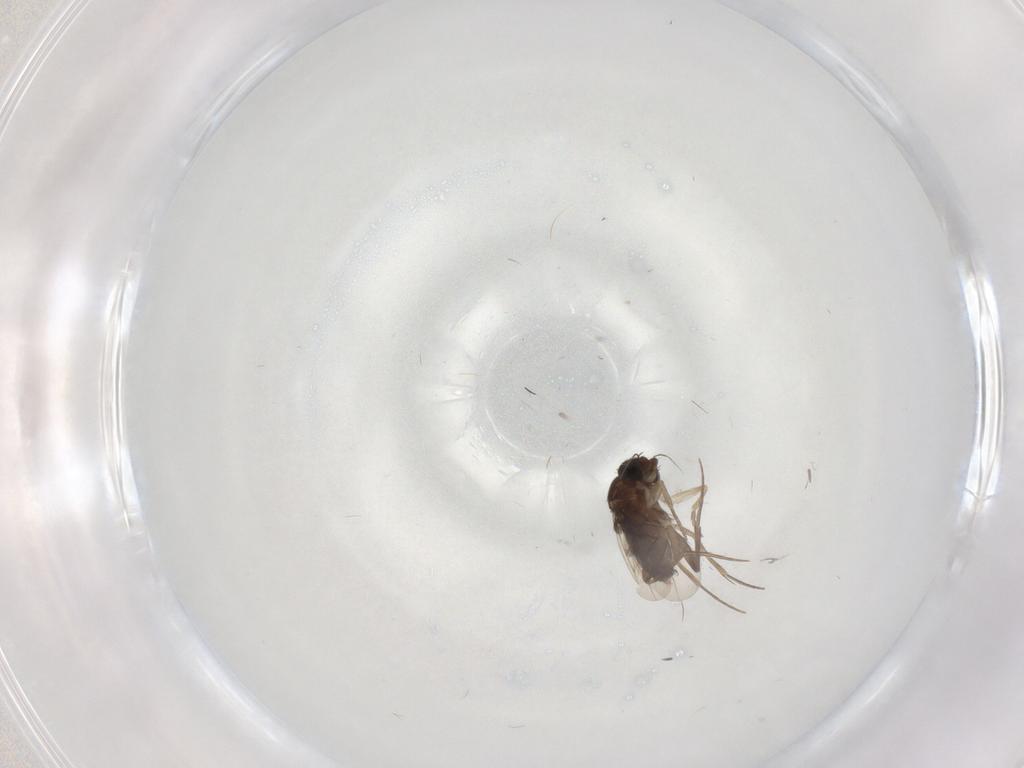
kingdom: Animalia
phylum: Arthropoda
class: Insecta
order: Diptera
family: Phoridae
